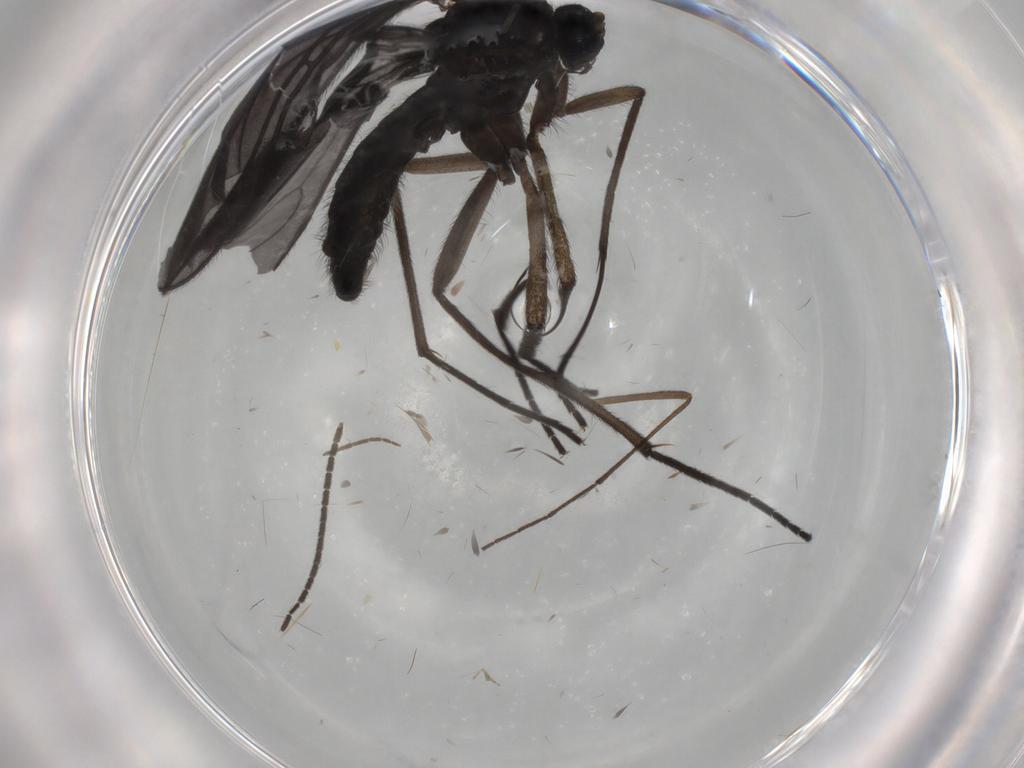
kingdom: Animalia
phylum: Arthropoda
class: Insecta
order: Diptera
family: Sciaridae
